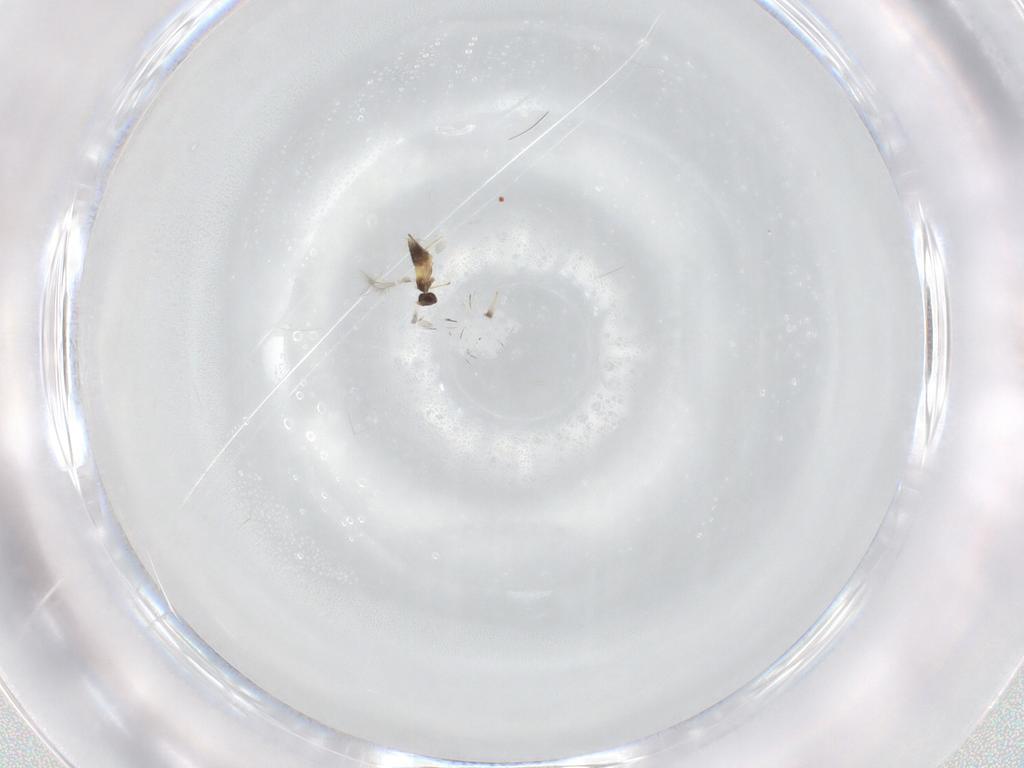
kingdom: Animalia
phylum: Arthropoda
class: Insecta
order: Hymenoptera
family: Mymaridae
